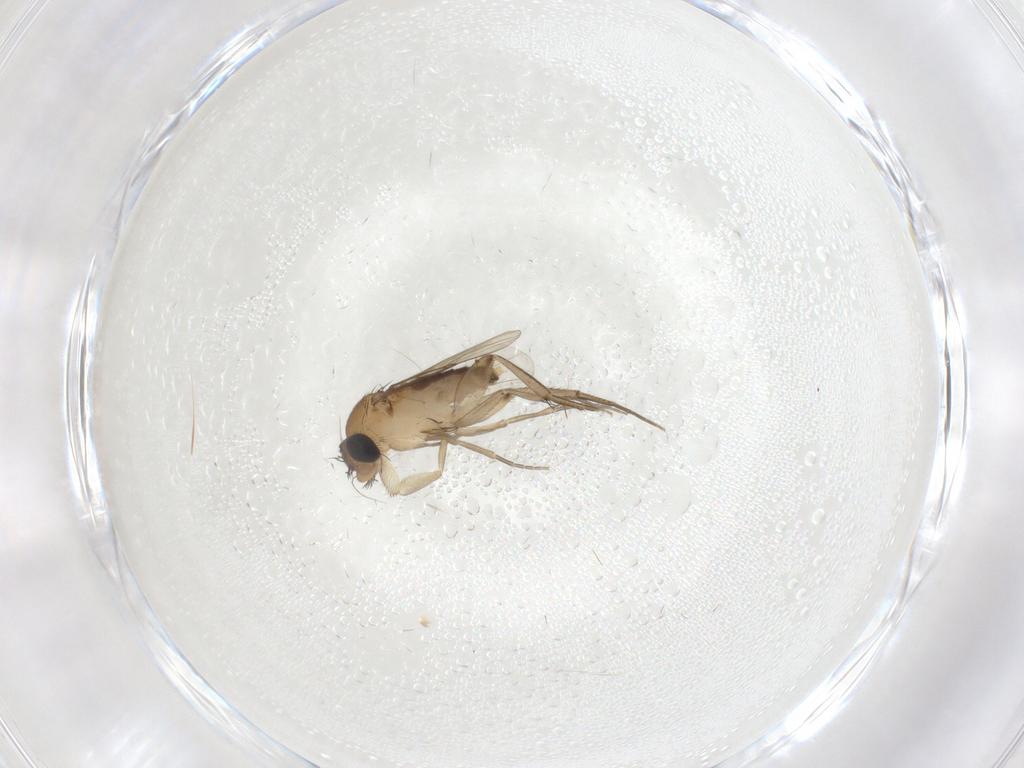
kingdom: Animalia
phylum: Arthropoda
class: Insecta
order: Diptera
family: Phoridae
